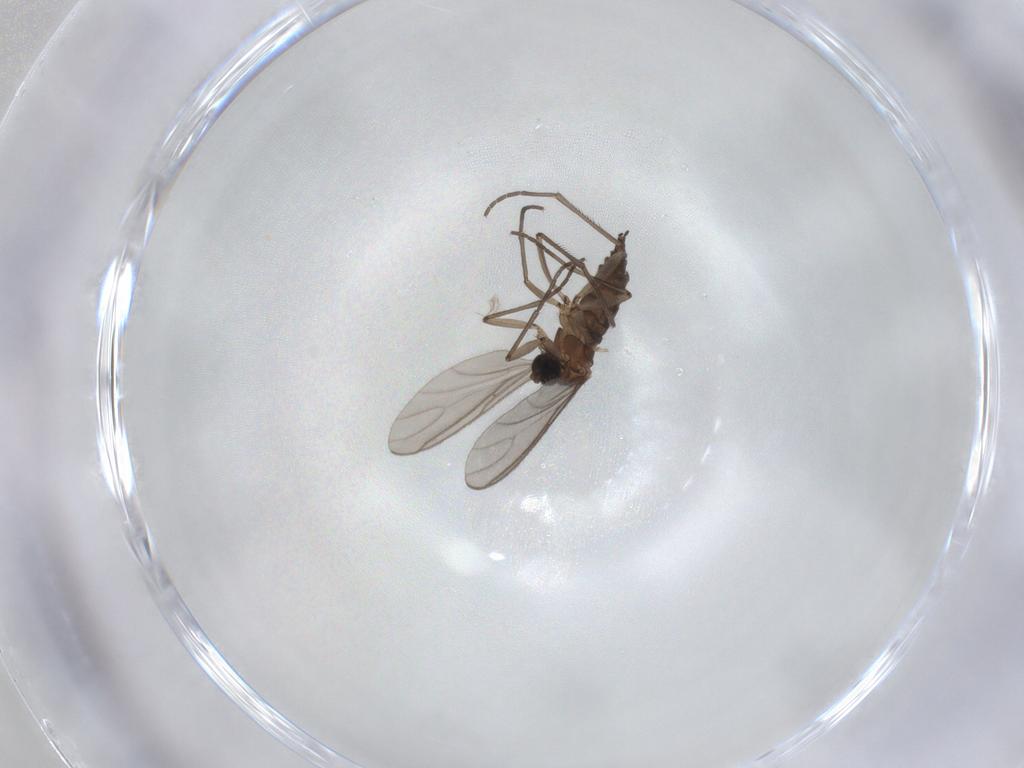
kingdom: Animalia
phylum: Arthropoda
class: Insecta
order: Diptera
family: Sciaridae
